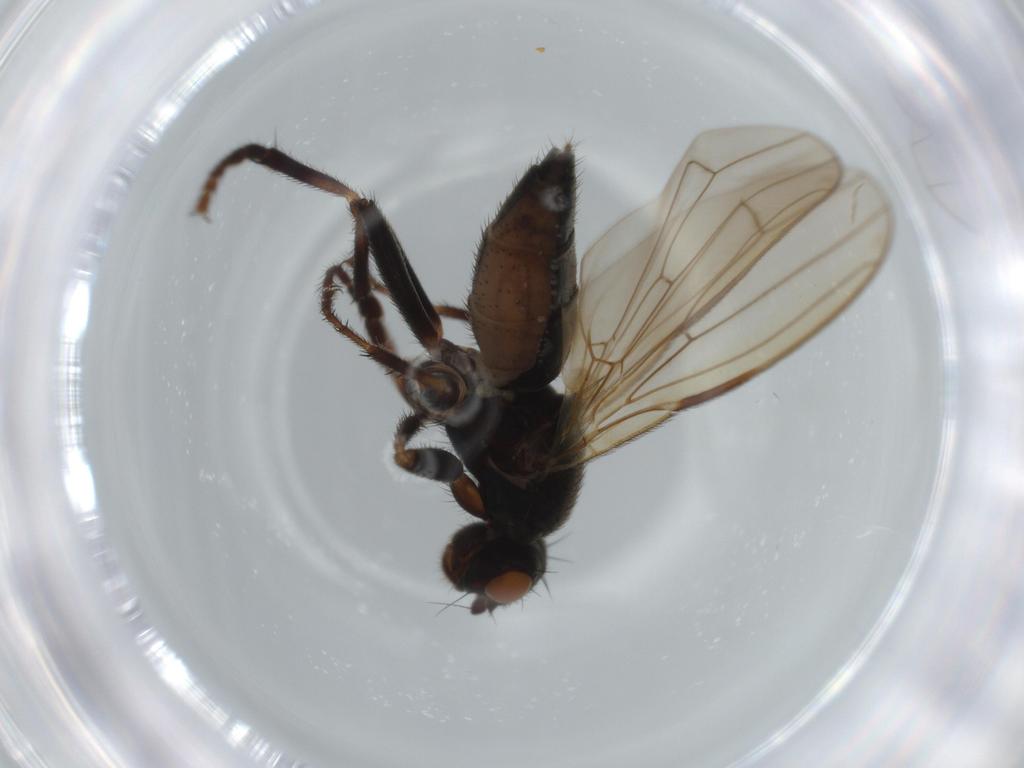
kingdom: Animalia
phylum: Arthropoda
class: Insecta
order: Diptera
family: Sphaeroceridae
